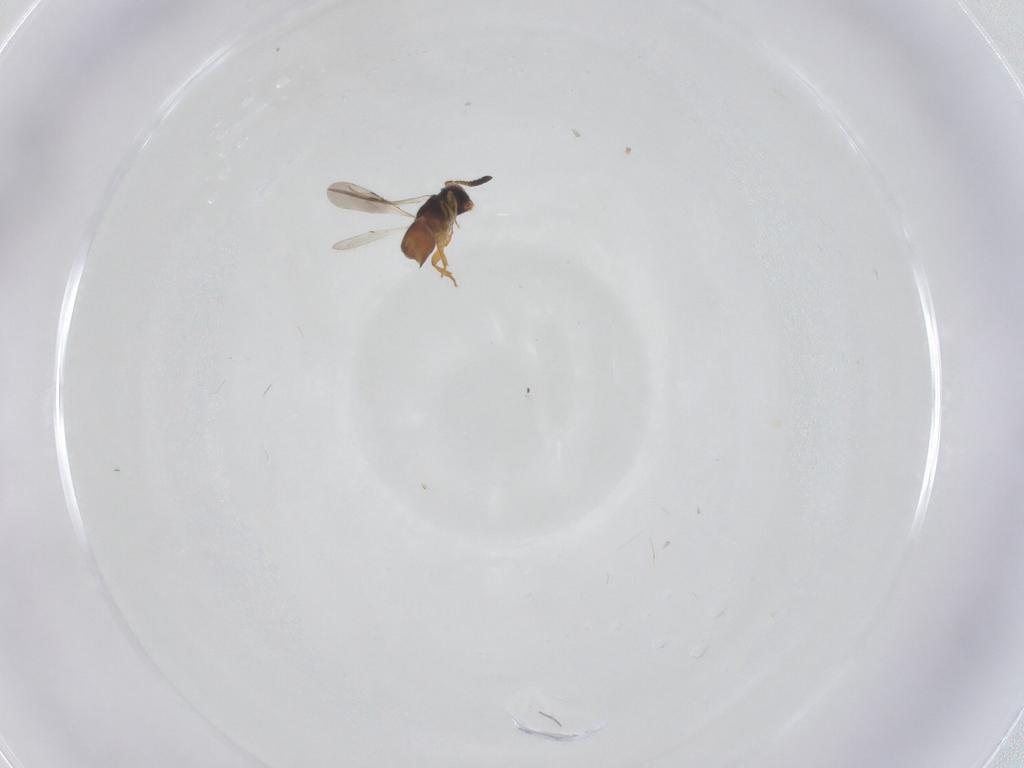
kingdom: Animalia
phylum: Arthropoda
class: Insecta
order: Hymenoptera
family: Ceraphronidae
